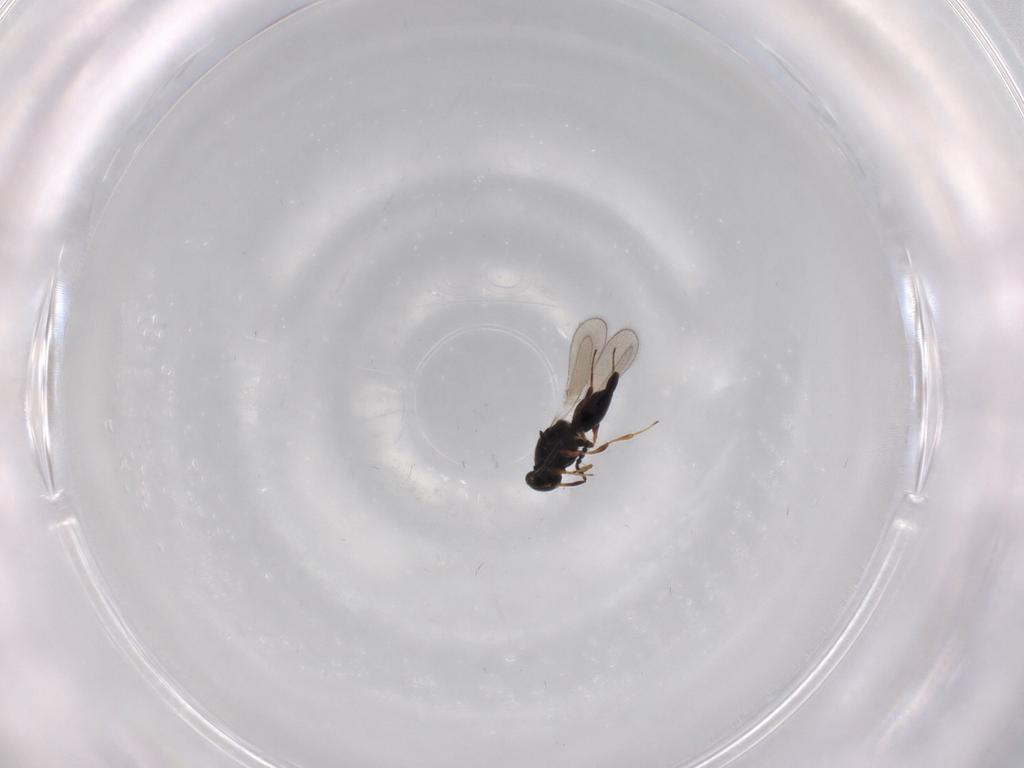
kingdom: Animalia
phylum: Arthropoda
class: Insecta
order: Hymenoptera
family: Platygastridae
